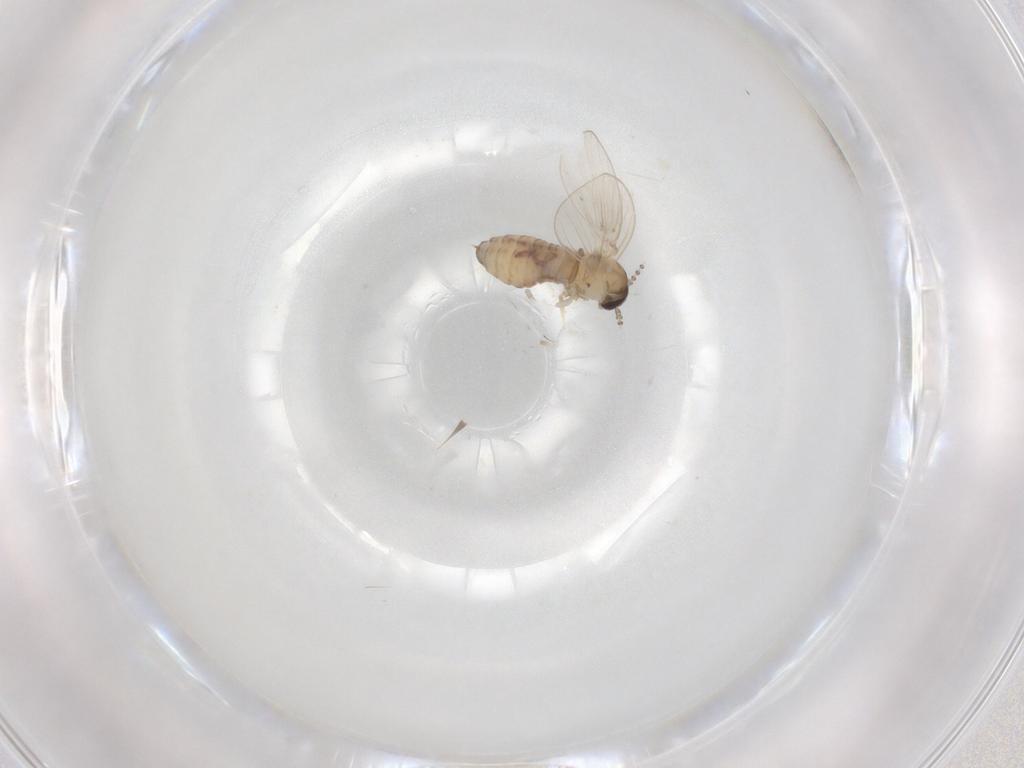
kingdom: Animalia
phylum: Arthropoda
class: Insecta
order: Diptera
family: Psychodidae
